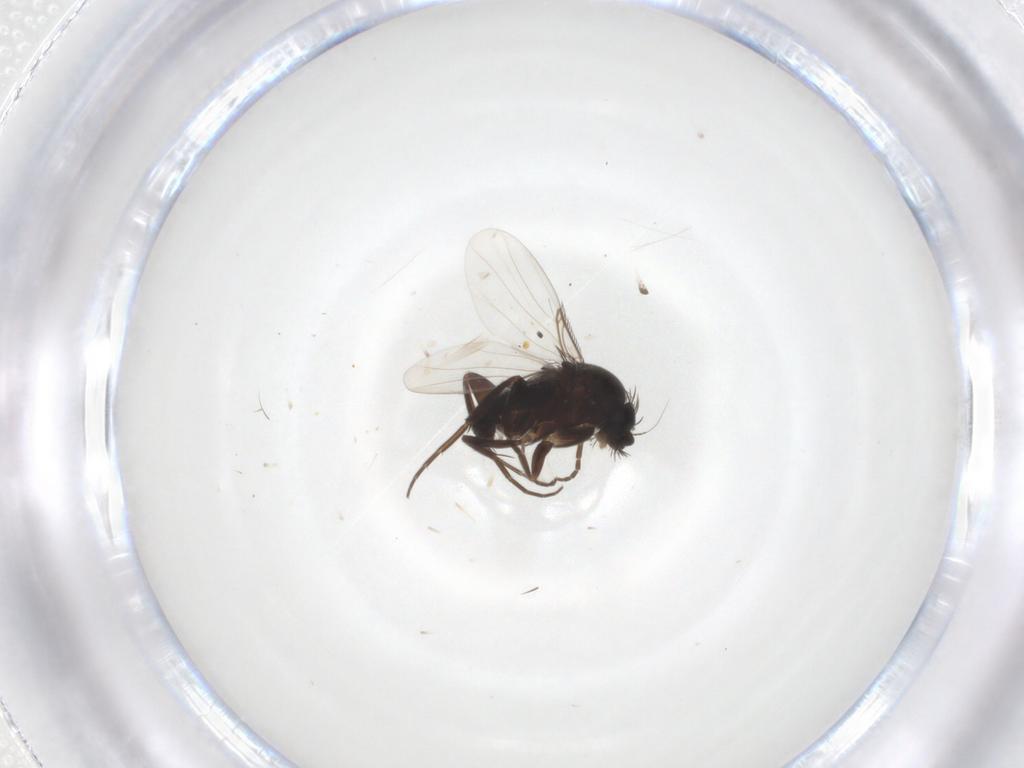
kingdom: Animalia
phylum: Arthropoda
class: Insecta
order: Diptera
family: Phoridae
